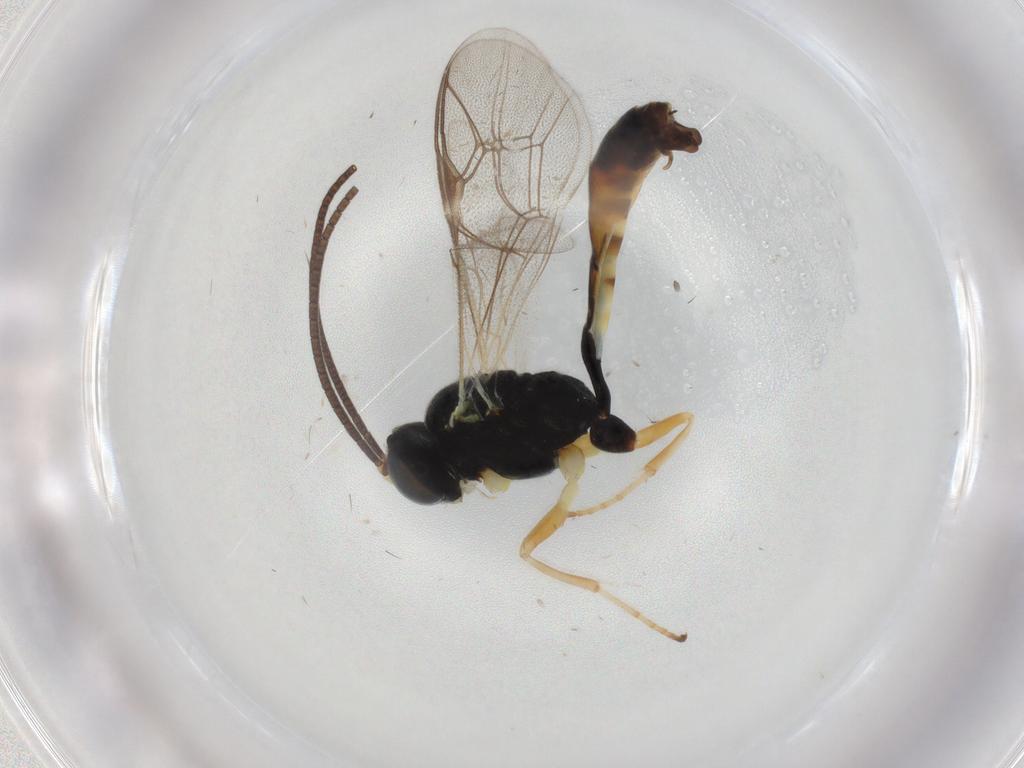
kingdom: Animalia
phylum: Arthropoda
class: Insecta
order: Hymenoptera
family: Ichneumonidae
